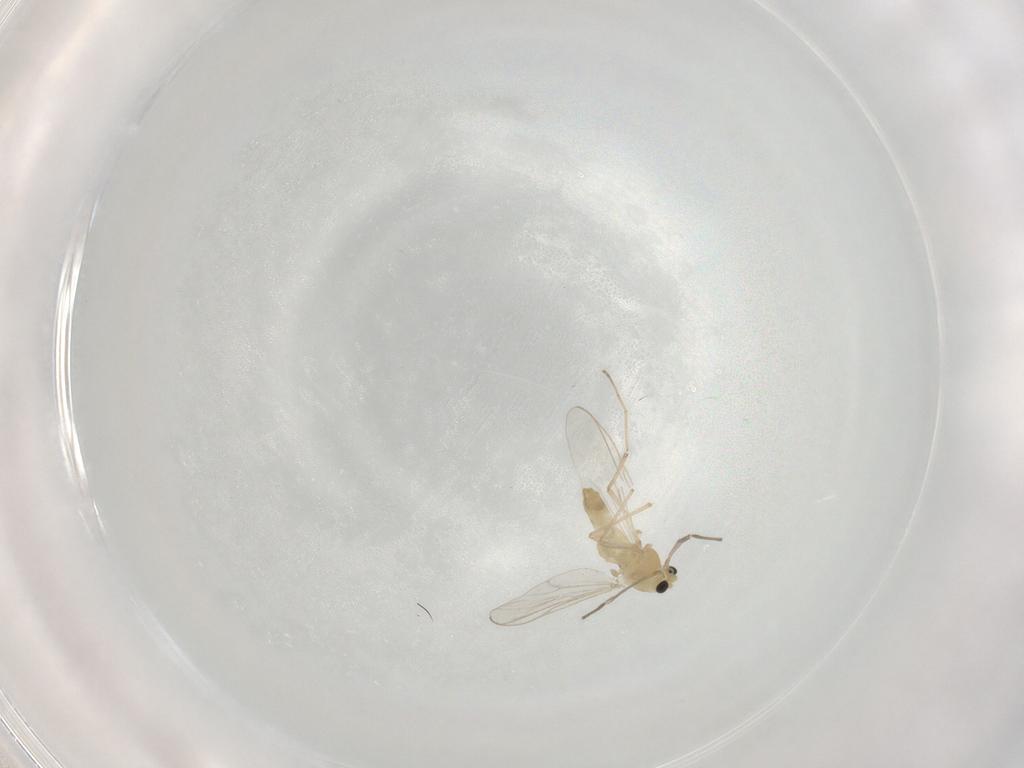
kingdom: Animalia
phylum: Arthropoda
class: Insecta
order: Diptera
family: Chironomidae
